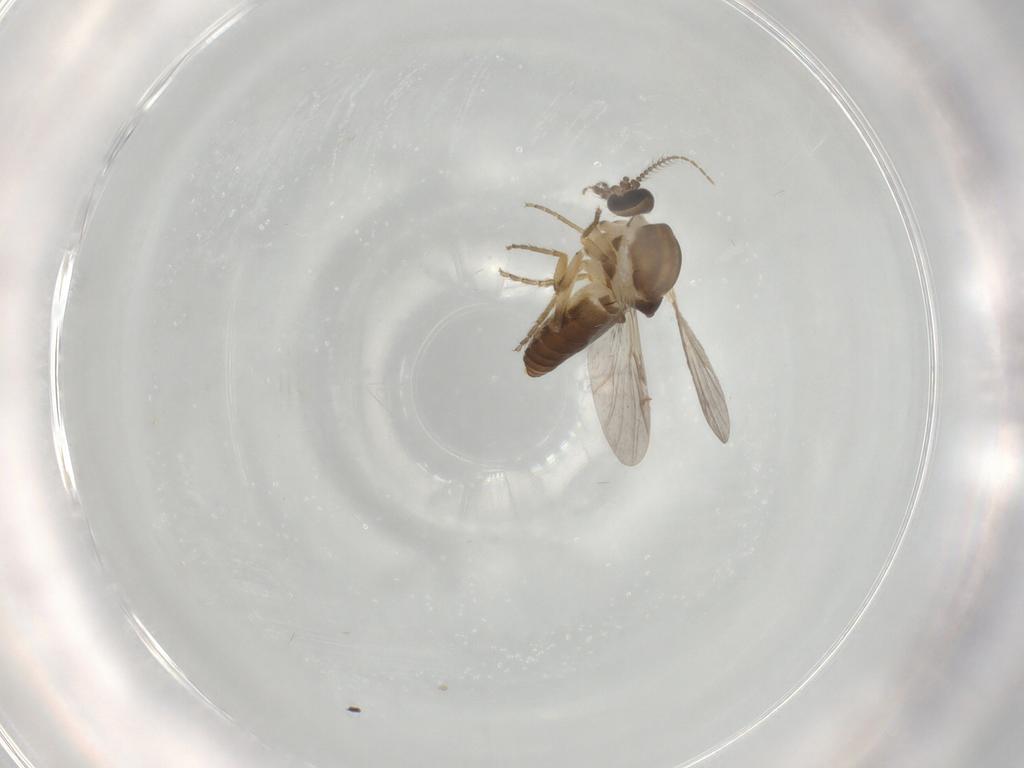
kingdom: Animalia
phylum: Arthropoda
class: Insecta
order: Diptera
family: Ceratopogonidae
